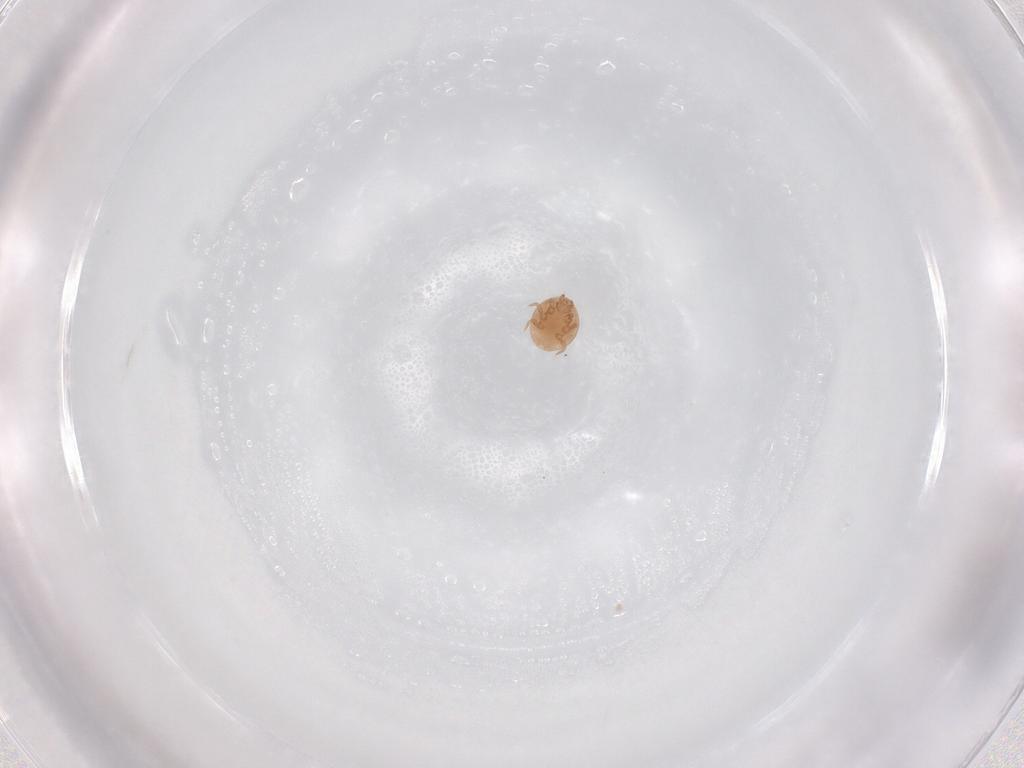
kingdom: Animalia
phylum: Arthropoda
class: Arachnida
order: Mesostigmata
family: Trematuridae
